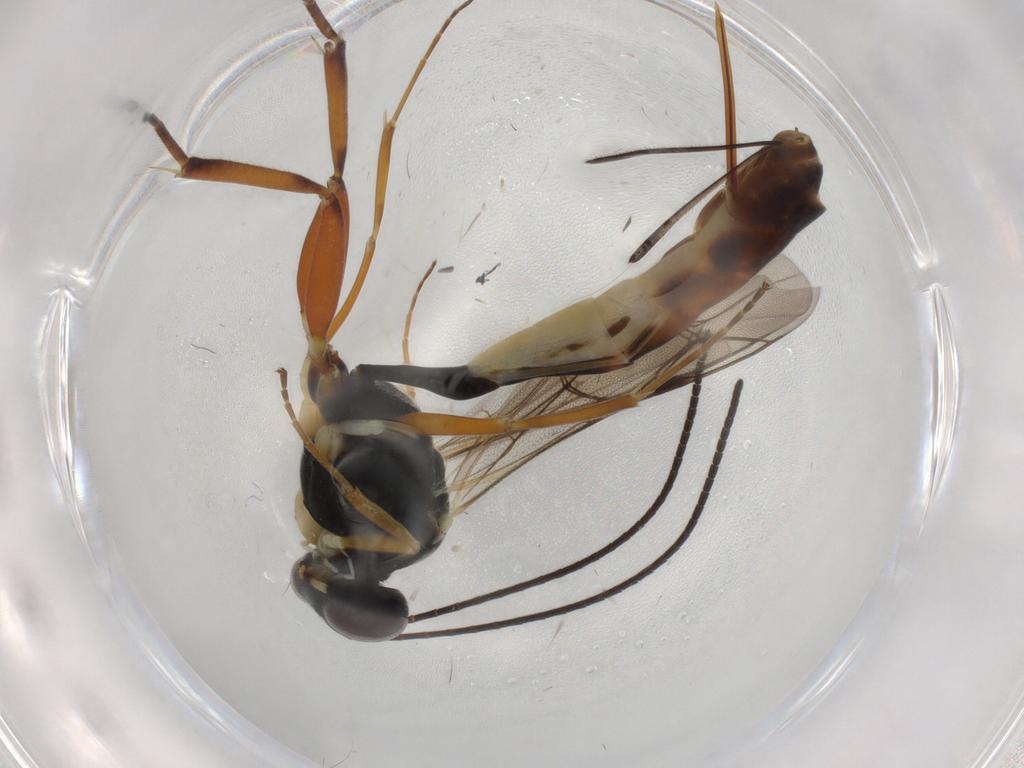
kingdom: Animalia
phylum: Arthropoda
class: Insecta
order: Hymenoptera
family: Ichneumonidae
